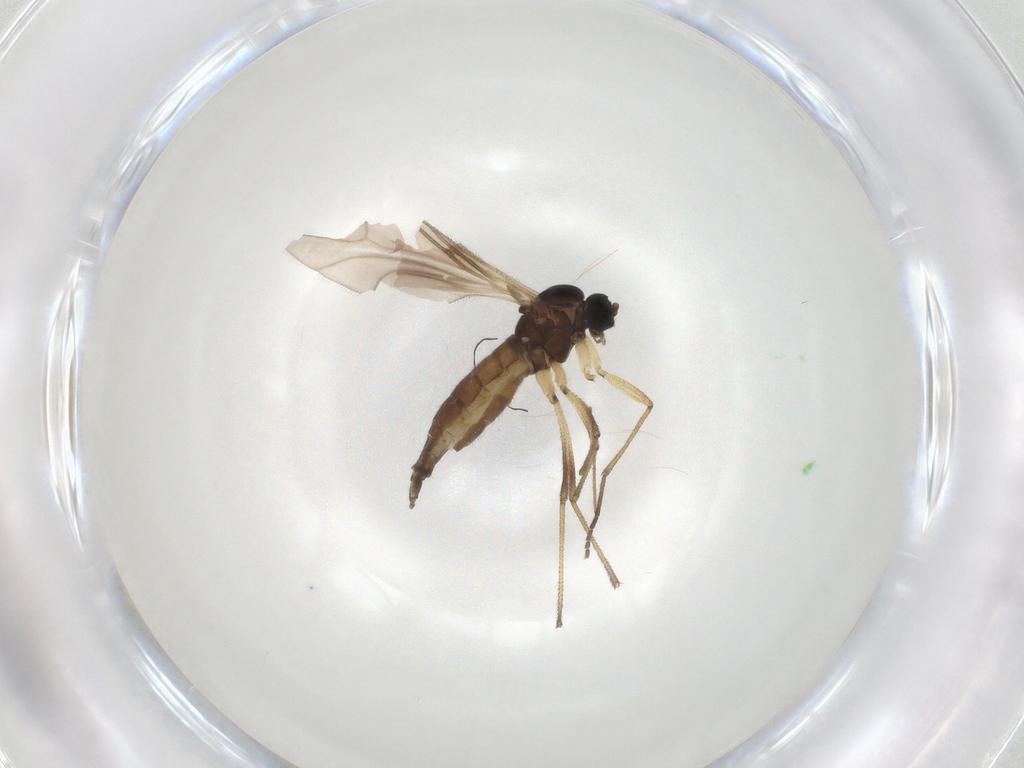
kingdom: Animalia
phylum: Arthropoda
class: Insecta
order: Diptera
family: Sciaridae
